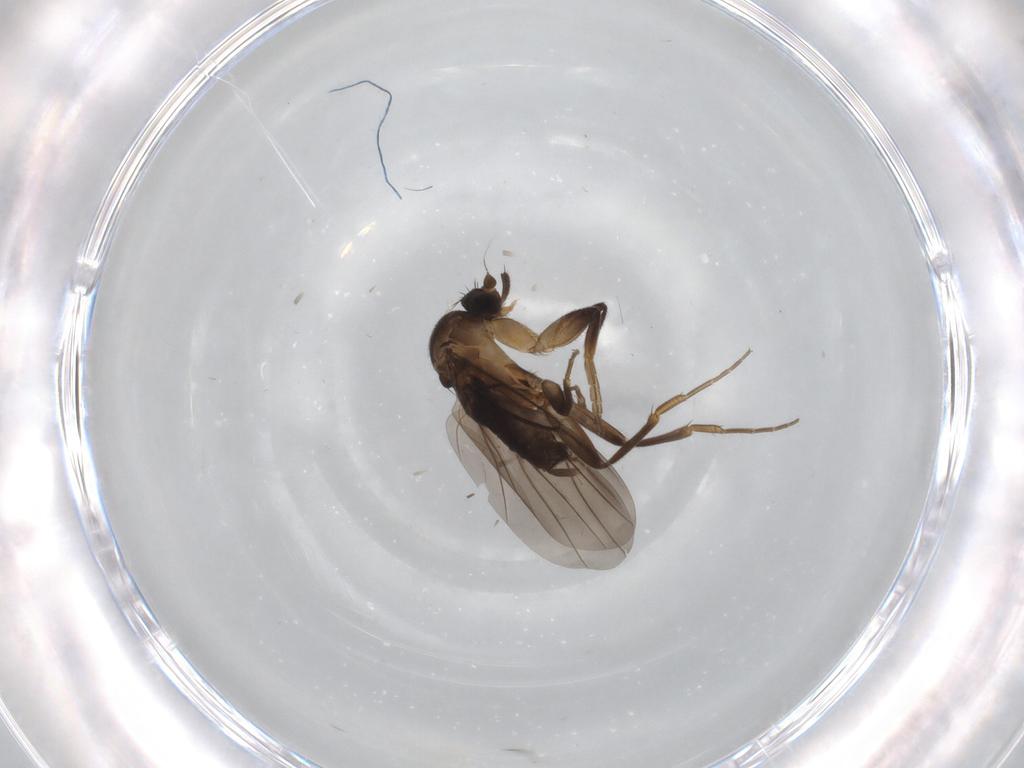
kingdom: Animalia
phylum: Arthropoda
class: Insecta
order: Diptera
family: Phoridae
